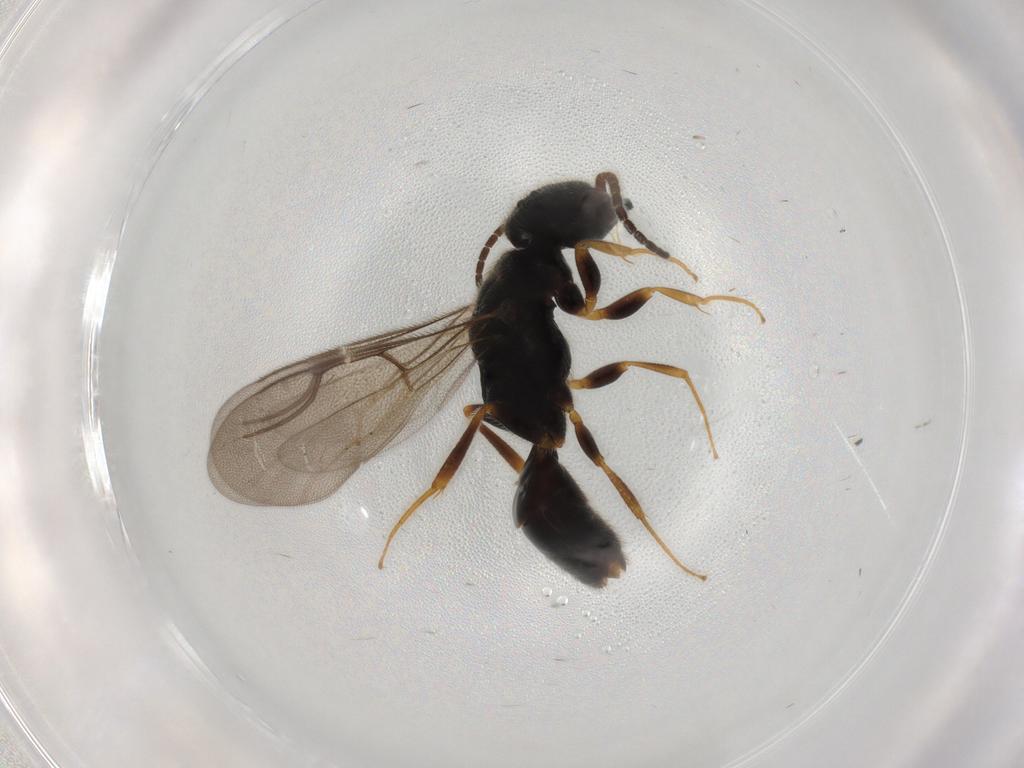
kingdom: Animalia
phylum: Arthropoda
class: Insecta
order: Hymenoptera
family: Bethylidae
